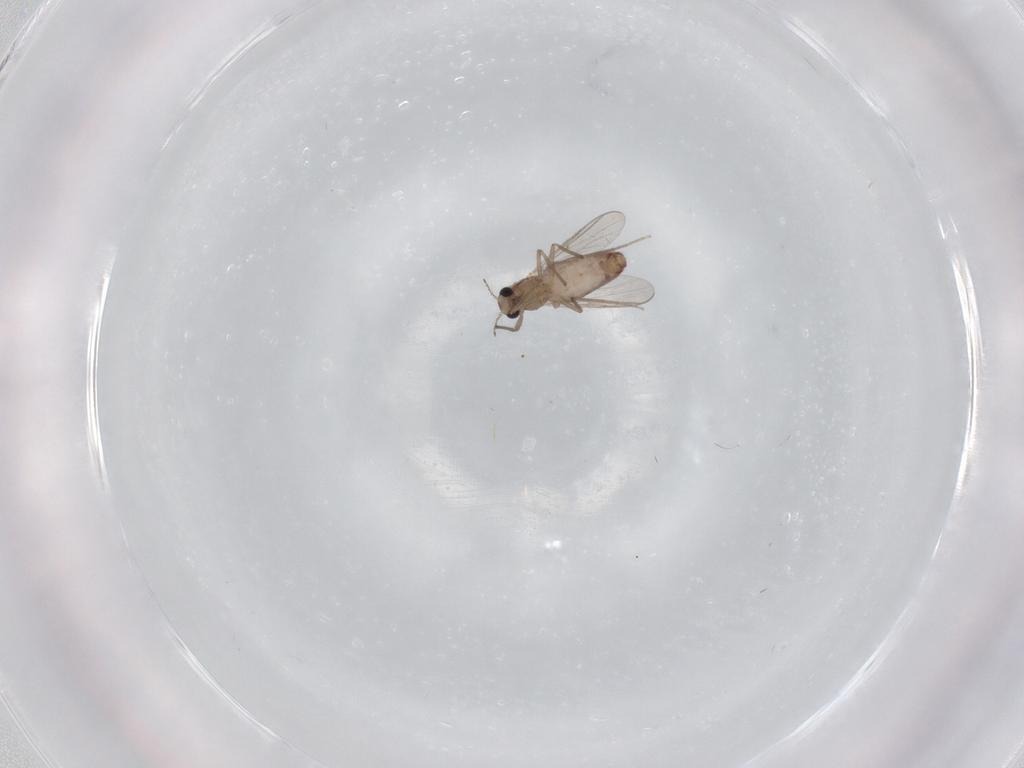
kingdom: Animalia
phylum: Arthropoda
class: Insecta
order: Diptera
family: Chironomidae
